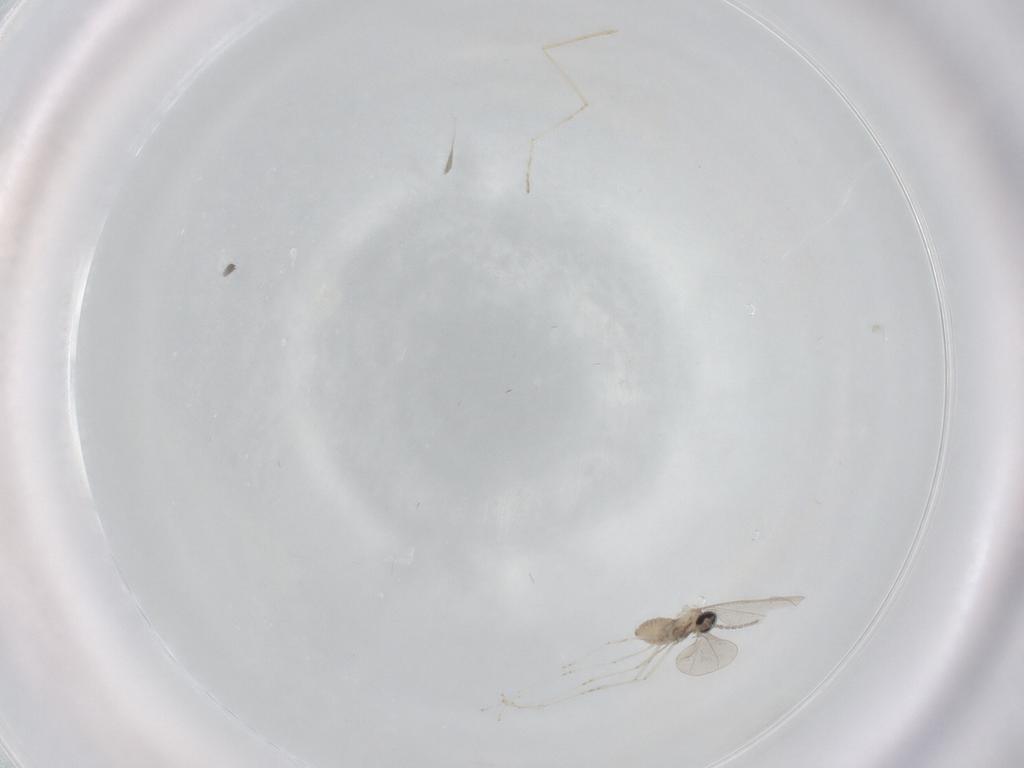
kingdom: Animalia
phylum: Arthropoda
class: Insecta
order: Diptera
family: Cecidomyiidae
